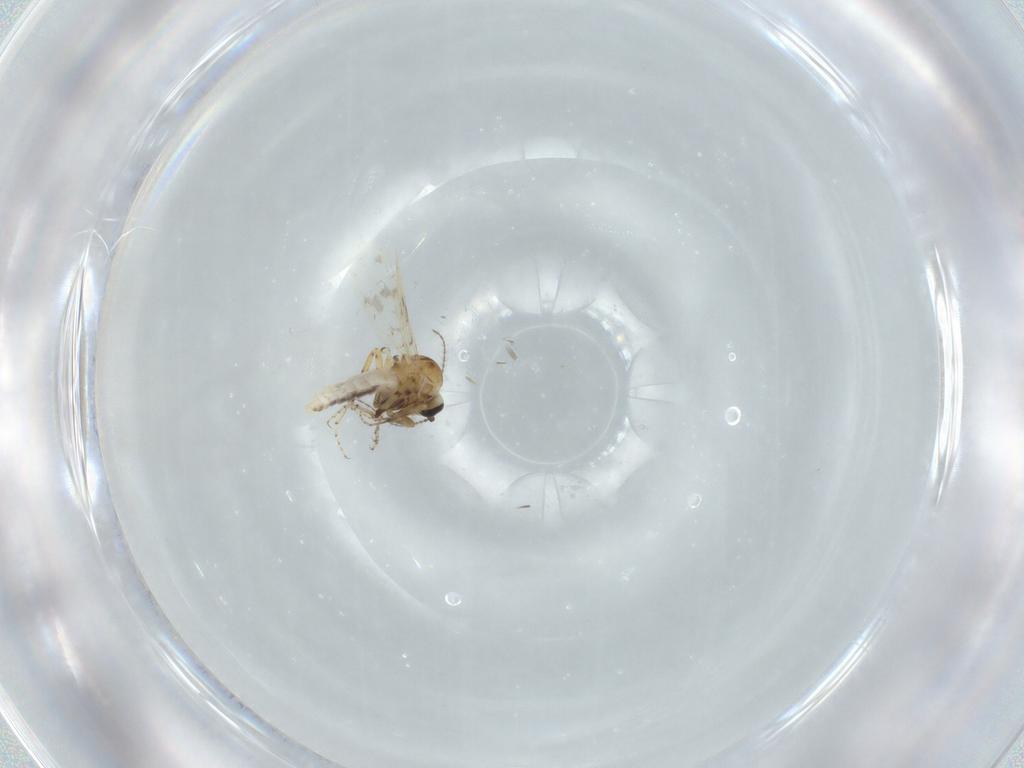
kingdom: Animalia
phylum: Arthropoda
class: Insecta
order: Diptera
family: Ceratopogonidae
